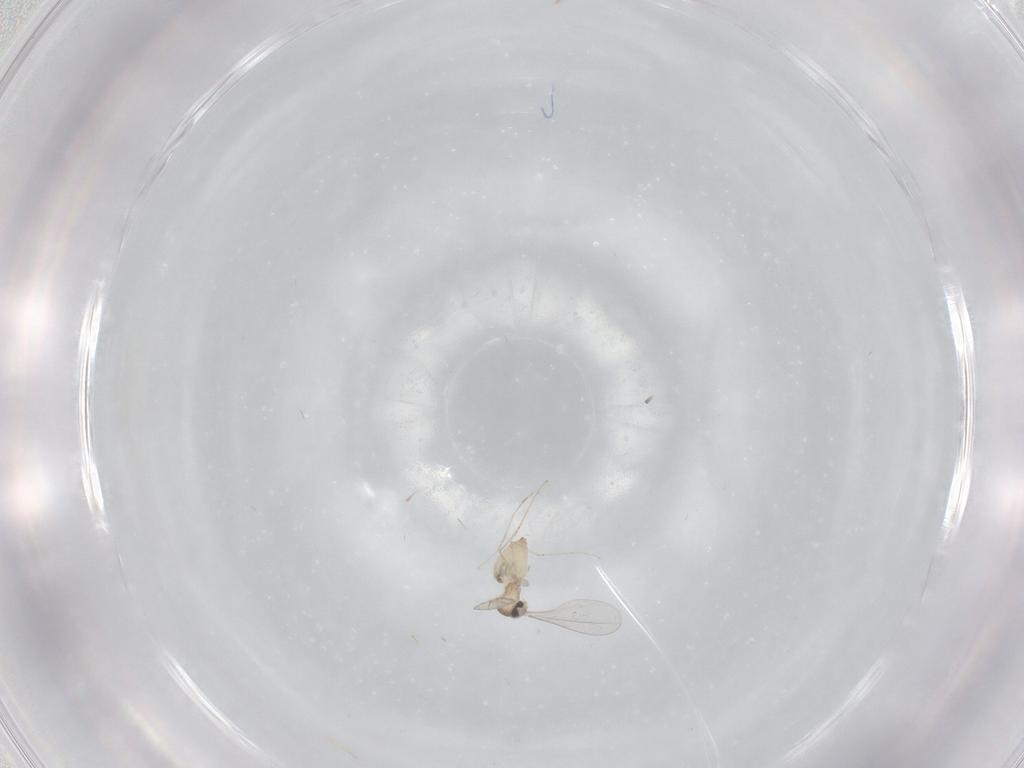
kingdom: Animalia
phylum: Arthropoda
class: Insecta
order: Diptera
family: Cecidomyiidae
